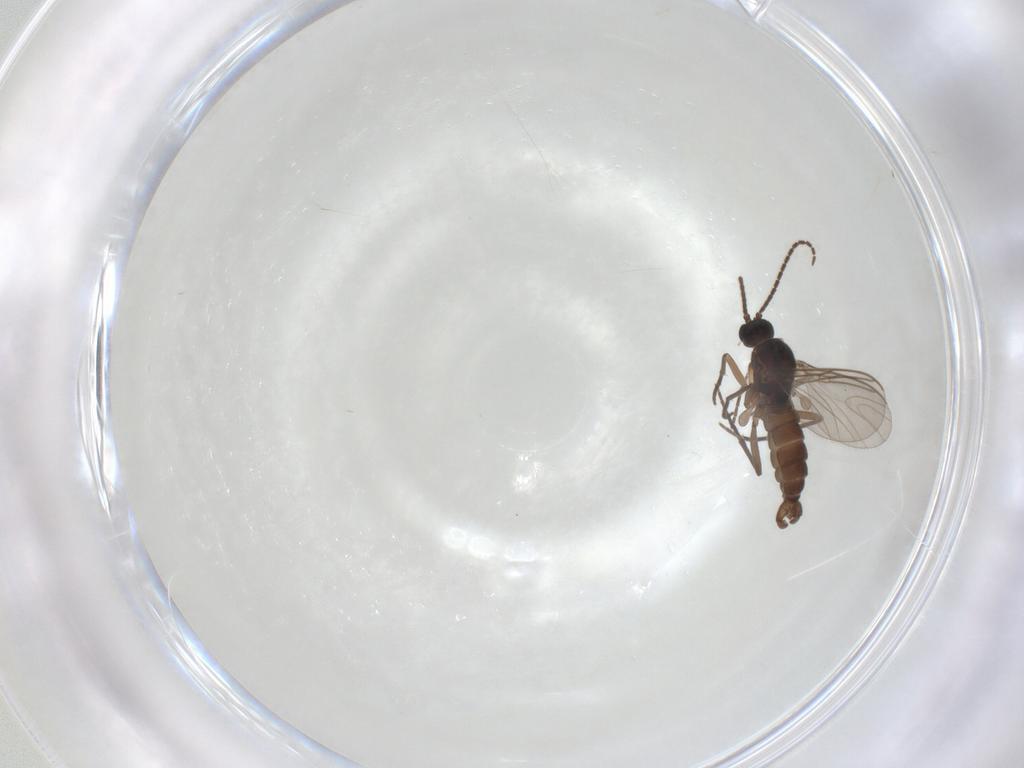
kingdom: Animalia
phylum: Arthropoda
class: Insecta
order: Diptera
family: Sciaridae
